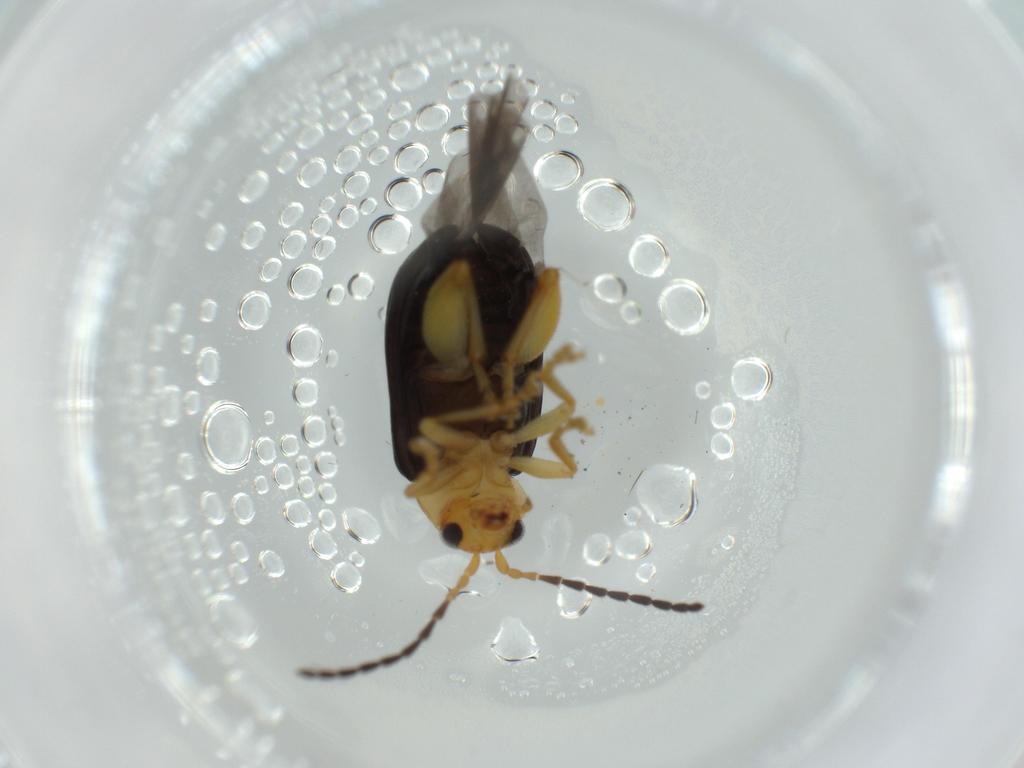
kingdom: Animalia
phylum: Arthropoda
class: Insecta
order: Coleoptera
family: Chrysomelidae
